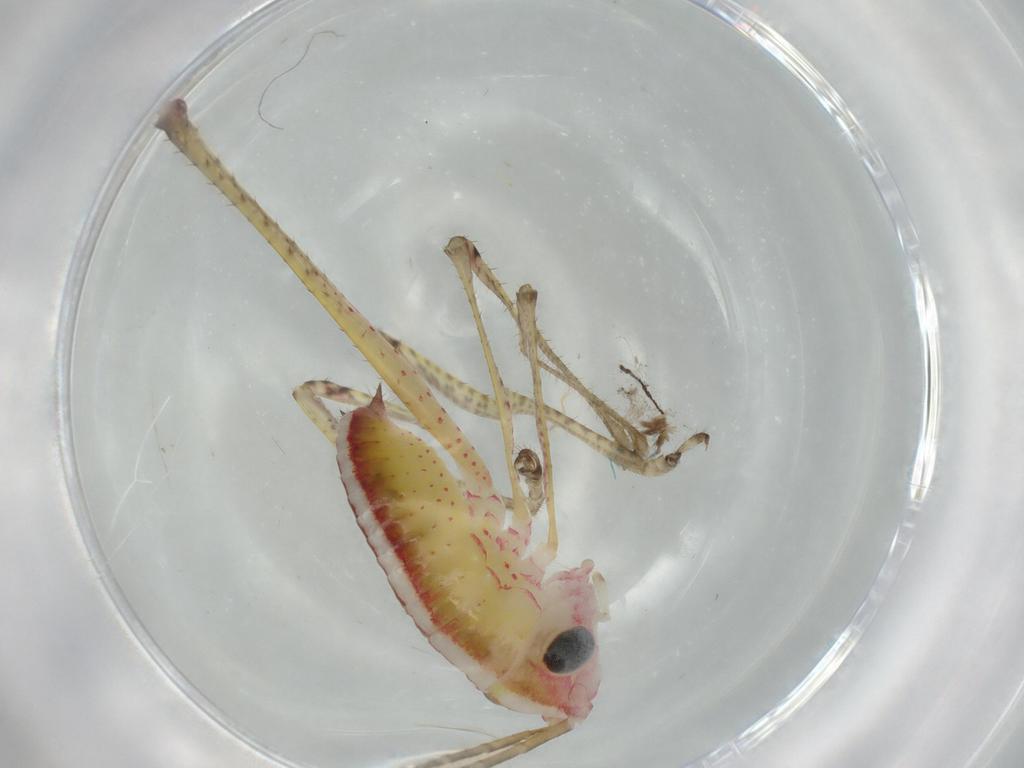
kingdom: Animalia
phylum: Arthropoda
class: Insecta
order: Orthoptera
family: Tettigoniidae
